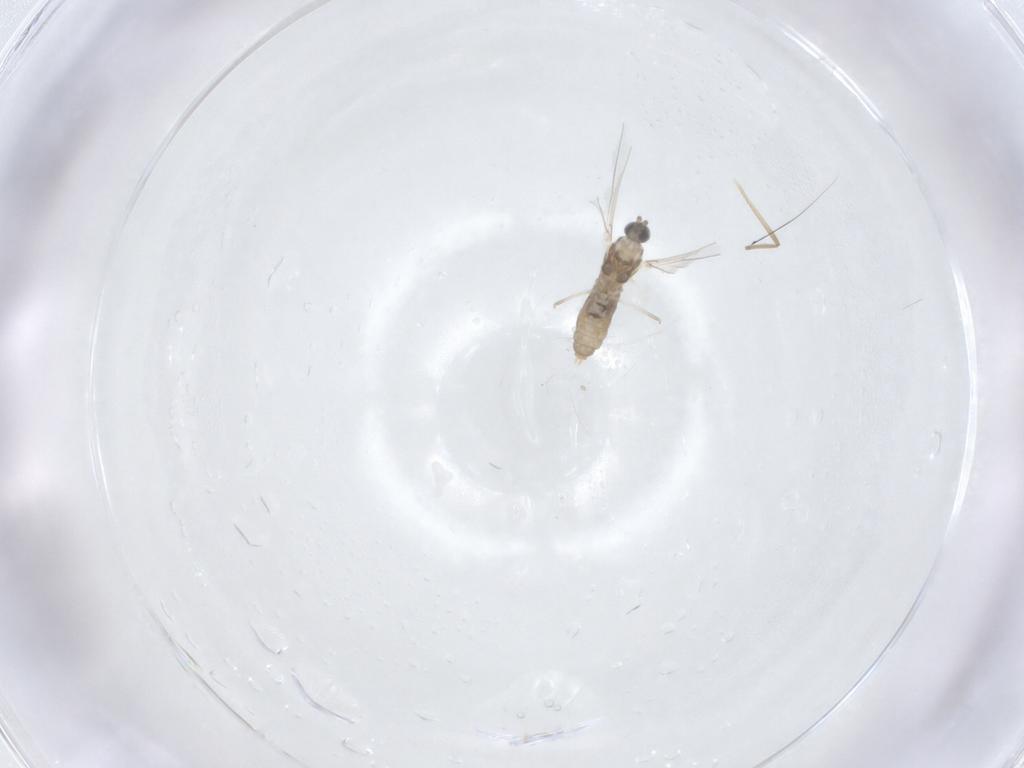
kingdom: Animalia
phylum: Arthropoda
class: Insecta
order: Diptera
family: Cecidomyiidae
